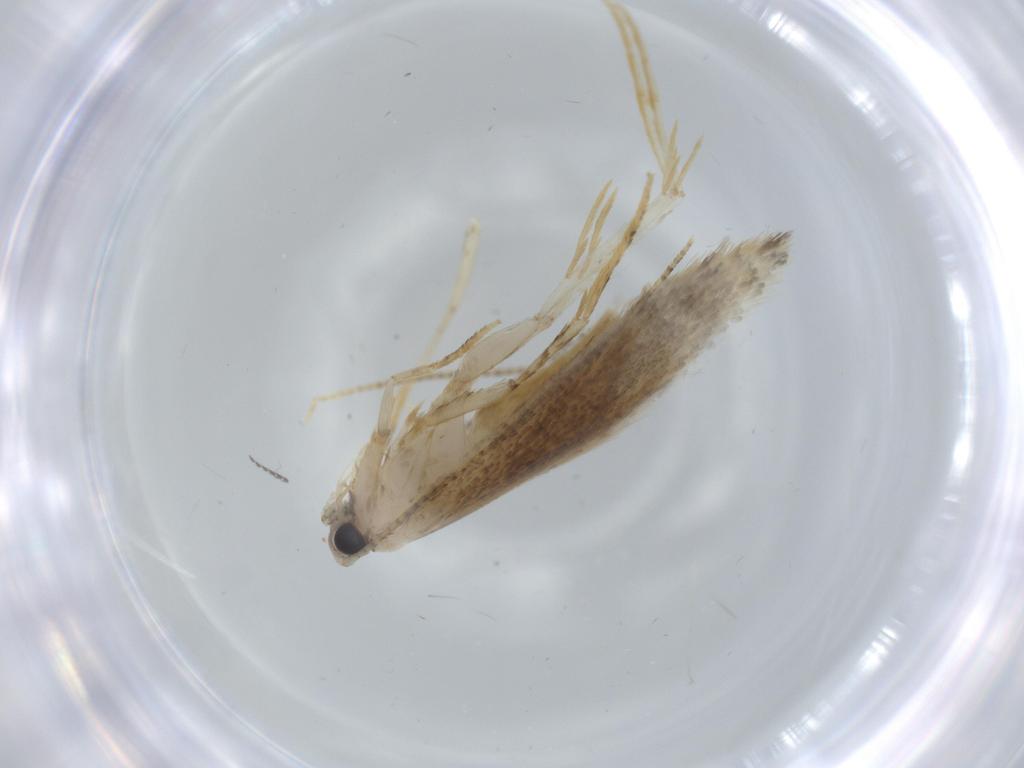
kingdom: Animalia
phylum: Arthropoda
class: Insecta
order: Lepidoptera
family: Tineidae
